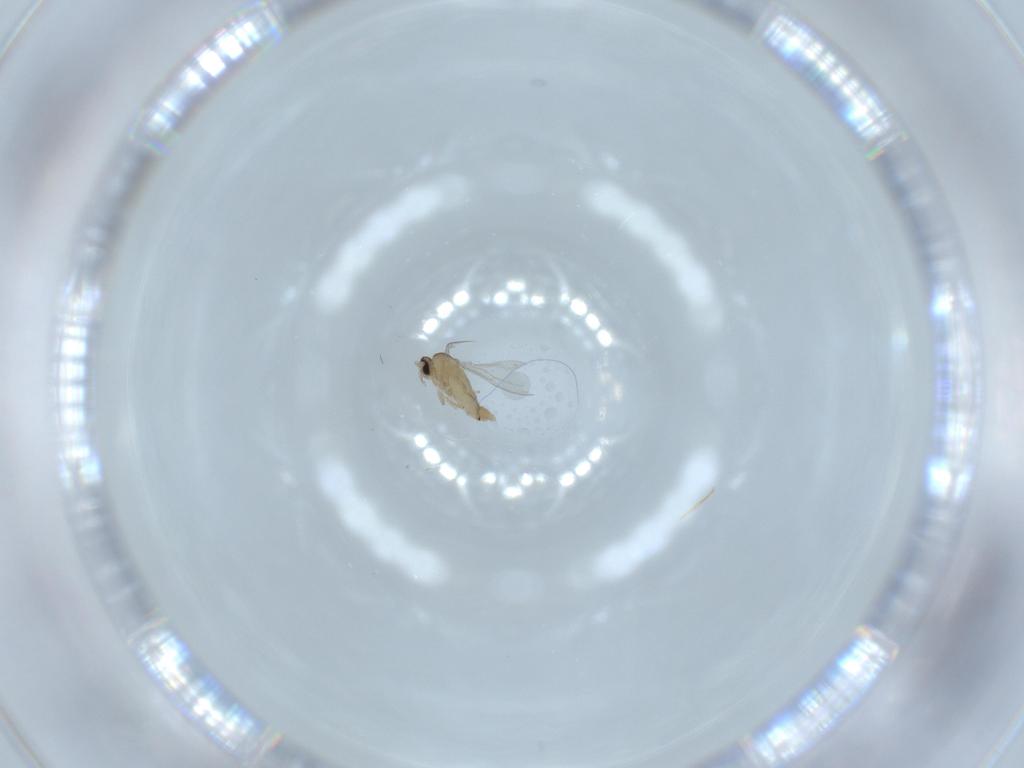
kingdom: Animalia
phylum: Arthropoda
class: Insecta
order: Diptera
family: Cecidomyiidae
